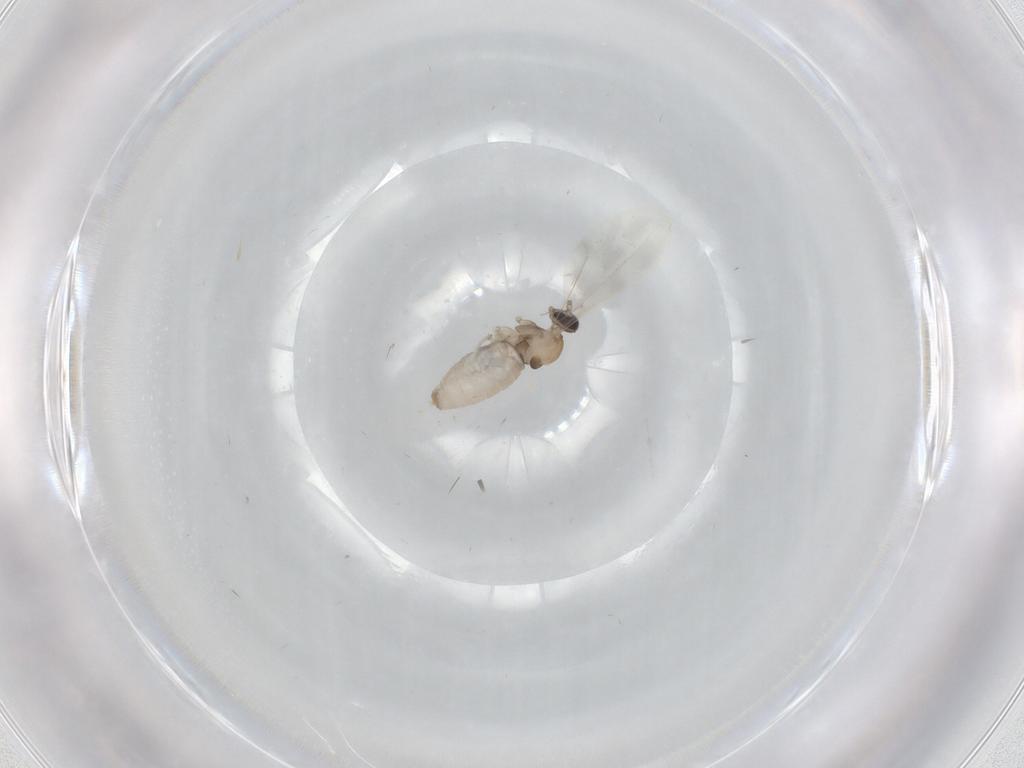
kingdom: Animalia
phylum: Arthropoda
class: Insecta
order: Diptera
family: Cecidomyiidae
